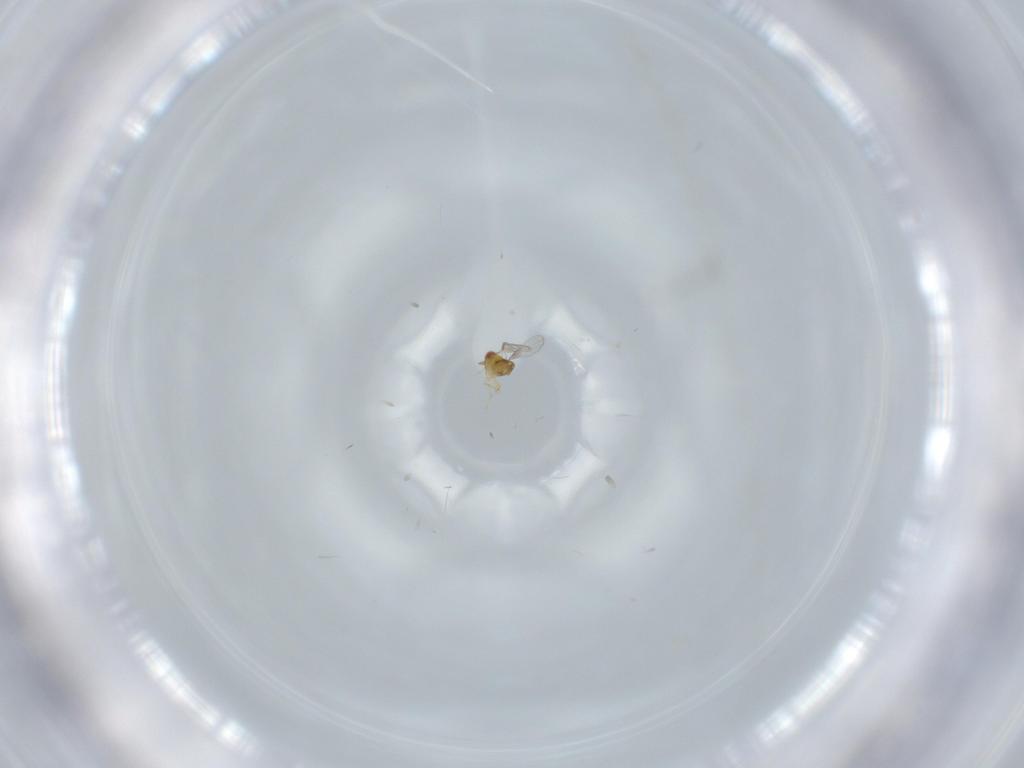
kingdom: Animalia
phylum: Arthropoda
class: Insecta
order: Hymenoptera
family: Trichogrammatidae
